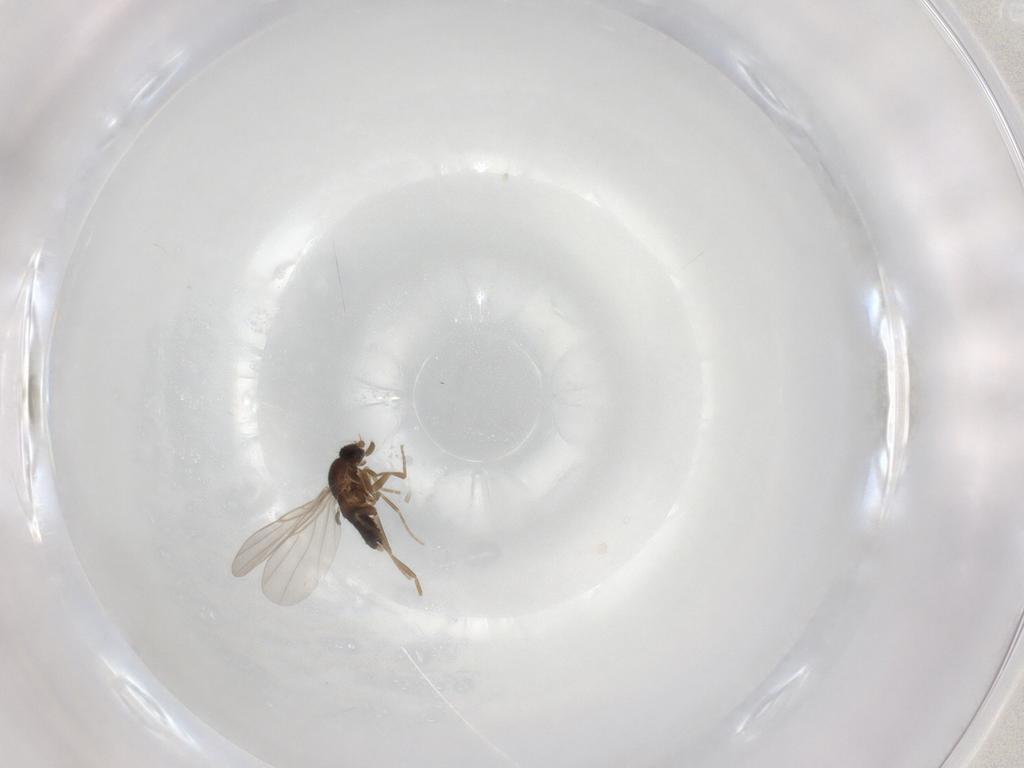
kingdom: Animalia
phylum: Arthropoda
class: Insecta
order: Diptera
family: Phoridae
